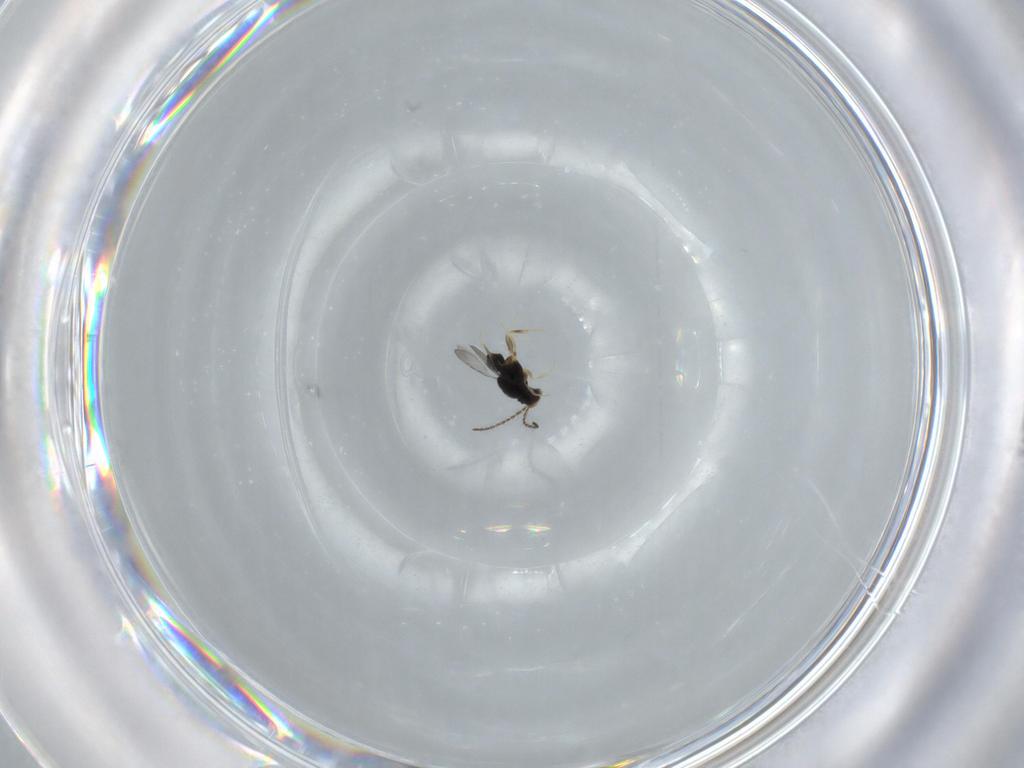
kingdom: Animalia
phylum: Arthropoda
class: Insecta
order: Hymenoptera
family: Ceraphronidae
